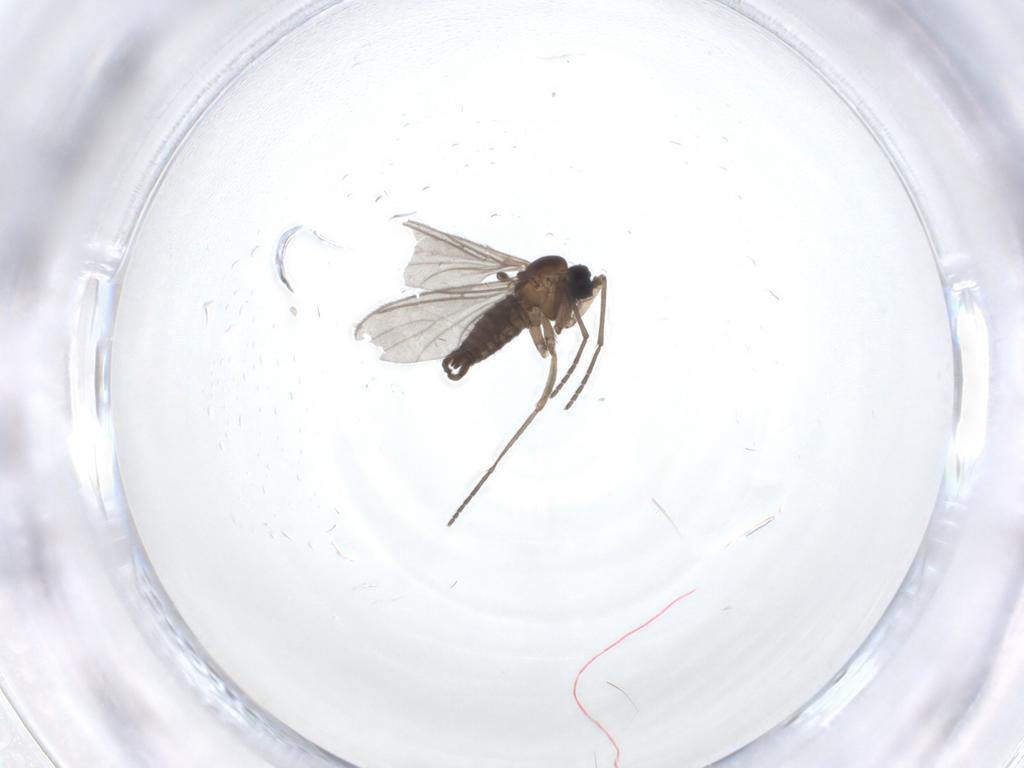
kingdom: Animalia
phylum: Arthropoda
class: Insecta
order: Diptera
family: Sciaridae
